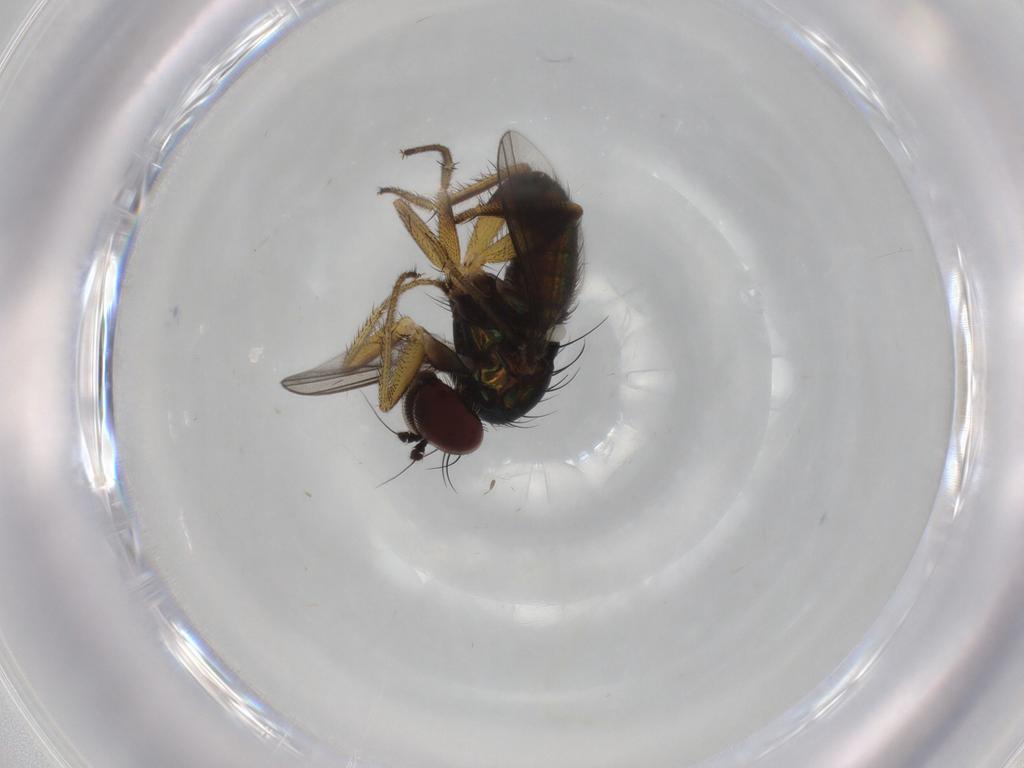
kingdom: Animalia
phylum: Arthropoda
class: Insecta
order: Diptera
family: Dolichopodidae
